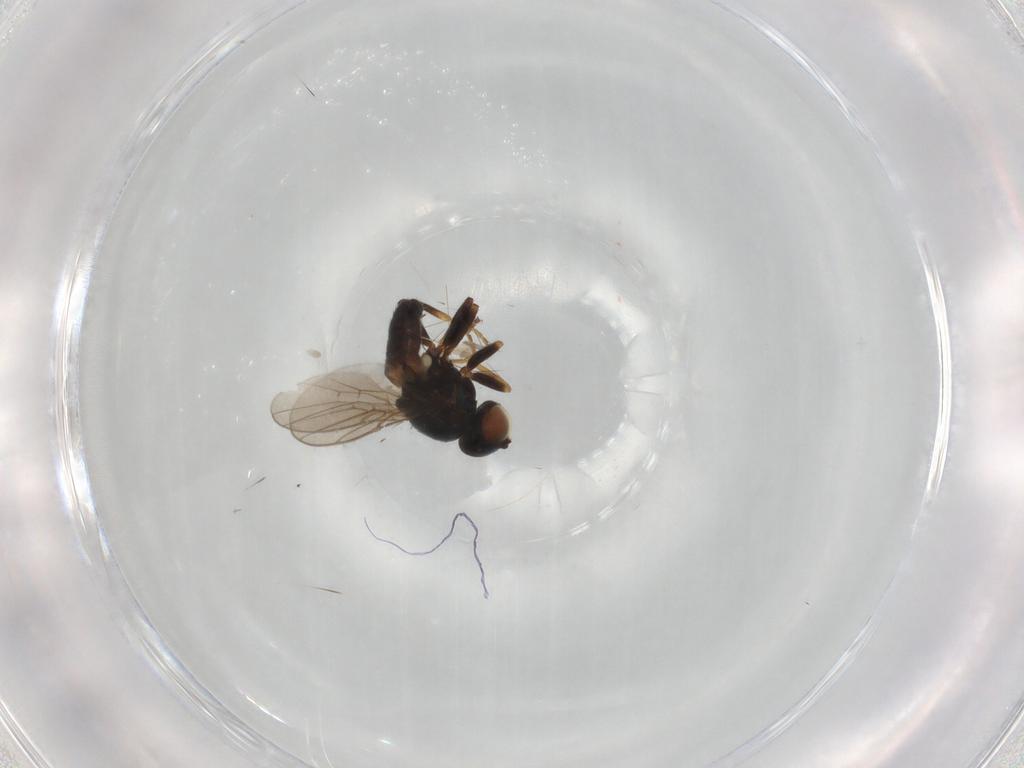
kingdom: Animalia
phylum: Arthropoda
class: Insecta
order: Diptera
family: Chloropidae
